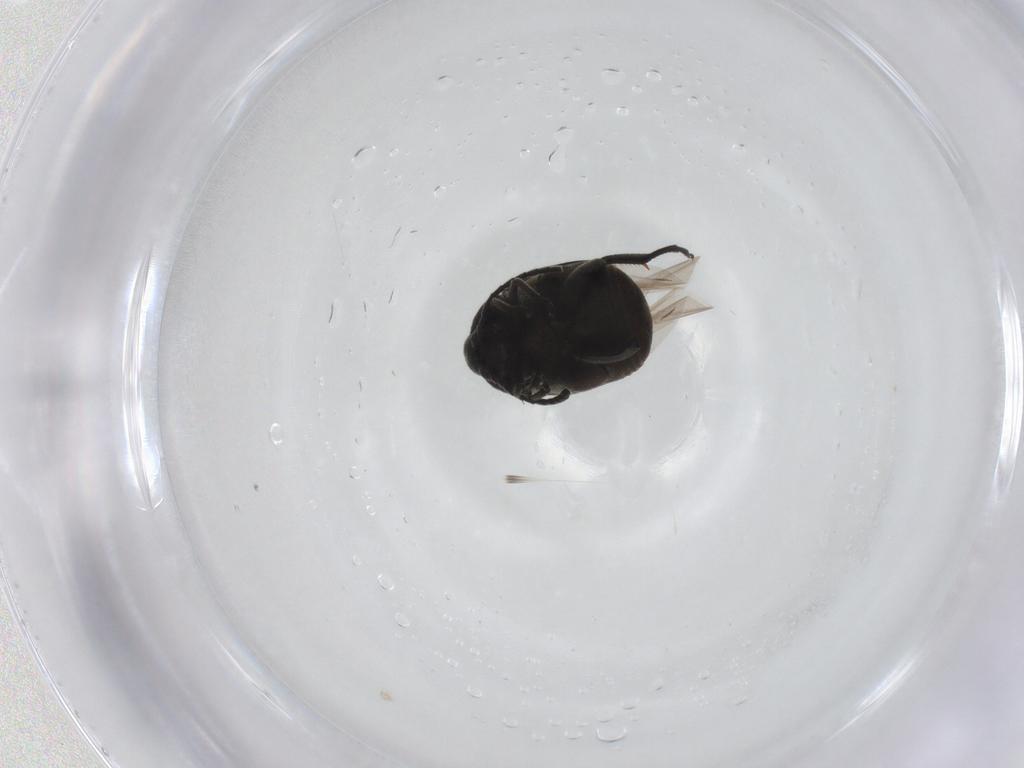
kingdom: Animalia
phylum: Arthropoda
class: Insecta
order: Coleoptera
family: Chrysomelidae
